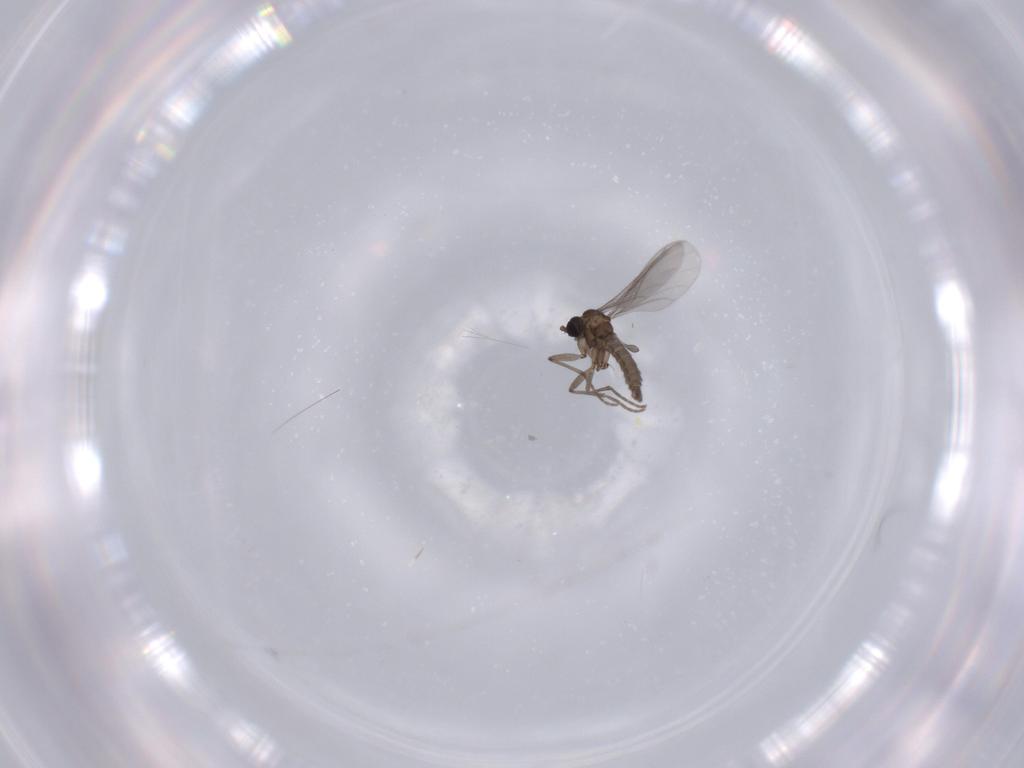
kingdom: Animalia
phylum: Arthropoda
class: Insecta
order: Diptera
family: Sciaridae
